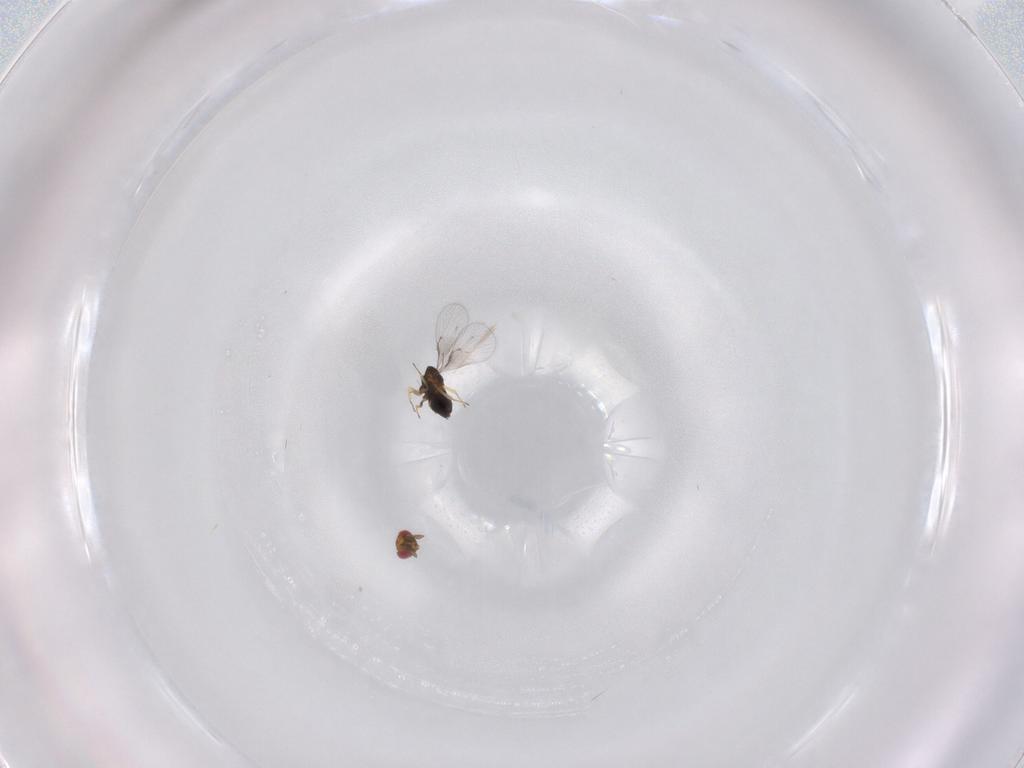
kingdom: Animalia
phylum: Arthropoda
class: Insecta
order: Hymenoptera
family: Trichogrammatidae
